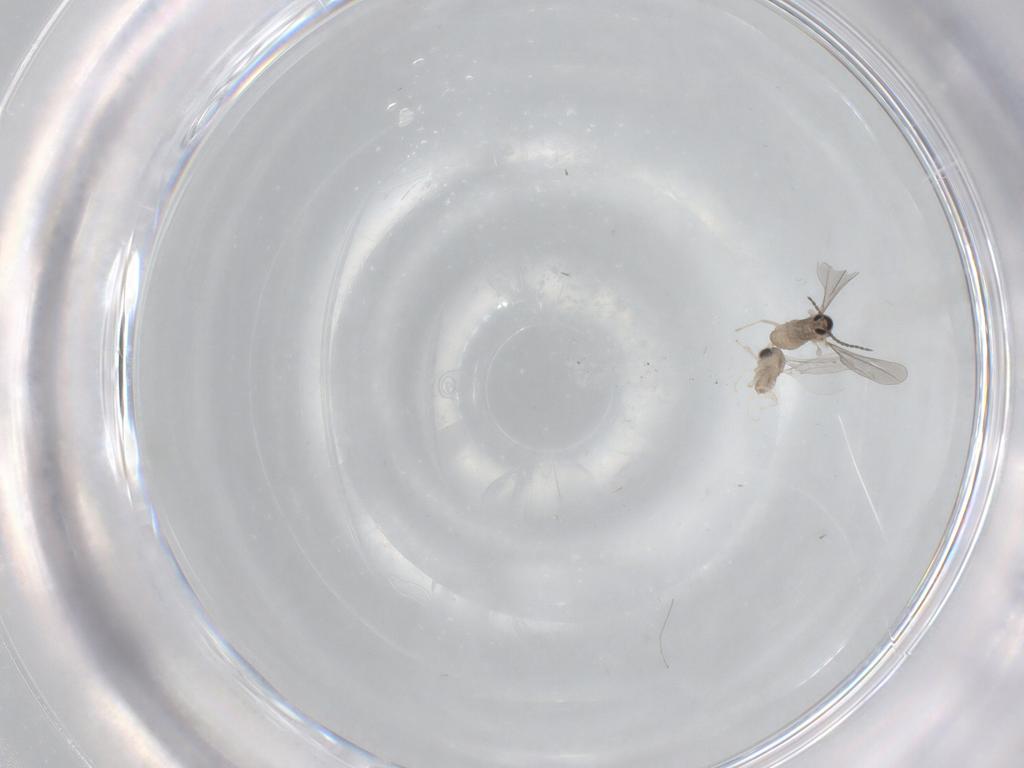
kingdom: Animalia
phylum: Arthropoda
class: Insecta
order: Diptera
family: Cecidomyiidae
